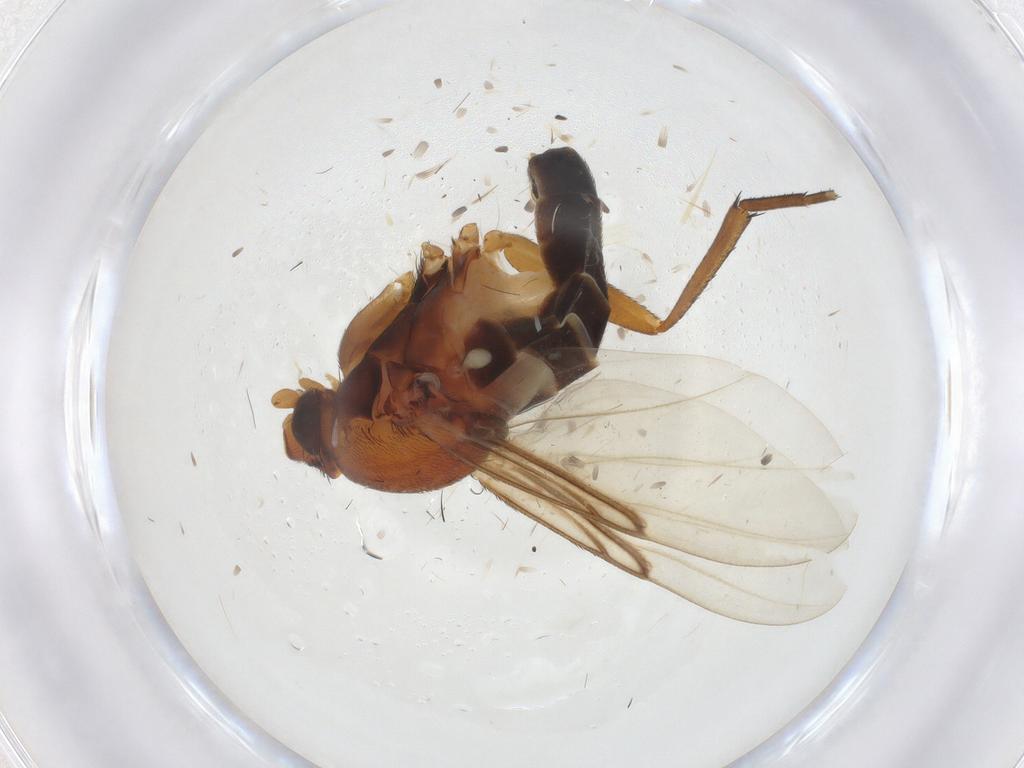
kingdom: Animalia
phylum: Arthropoda
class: Insecta
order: Diptera
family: Phoridae
